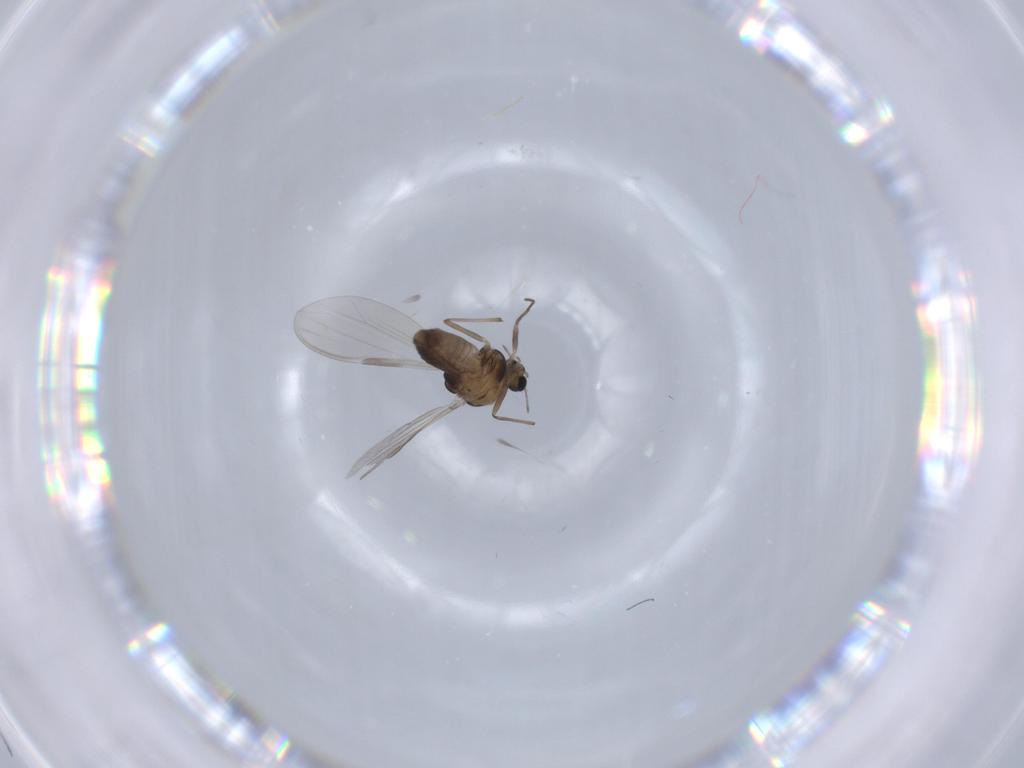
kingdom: Animalia
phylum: Arthropoda
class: Insecta
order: Diptera
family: Chironomidae
